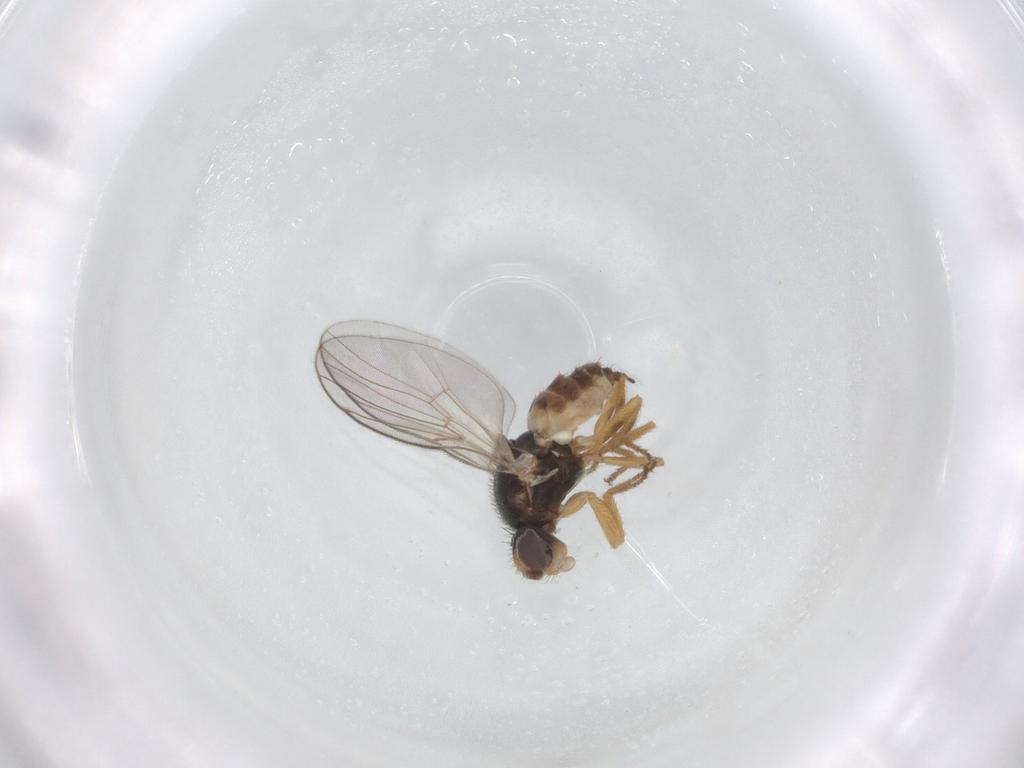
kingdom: Animalia
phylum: Arthropoda
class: Insecta
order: Diptera
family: Chloropidae
